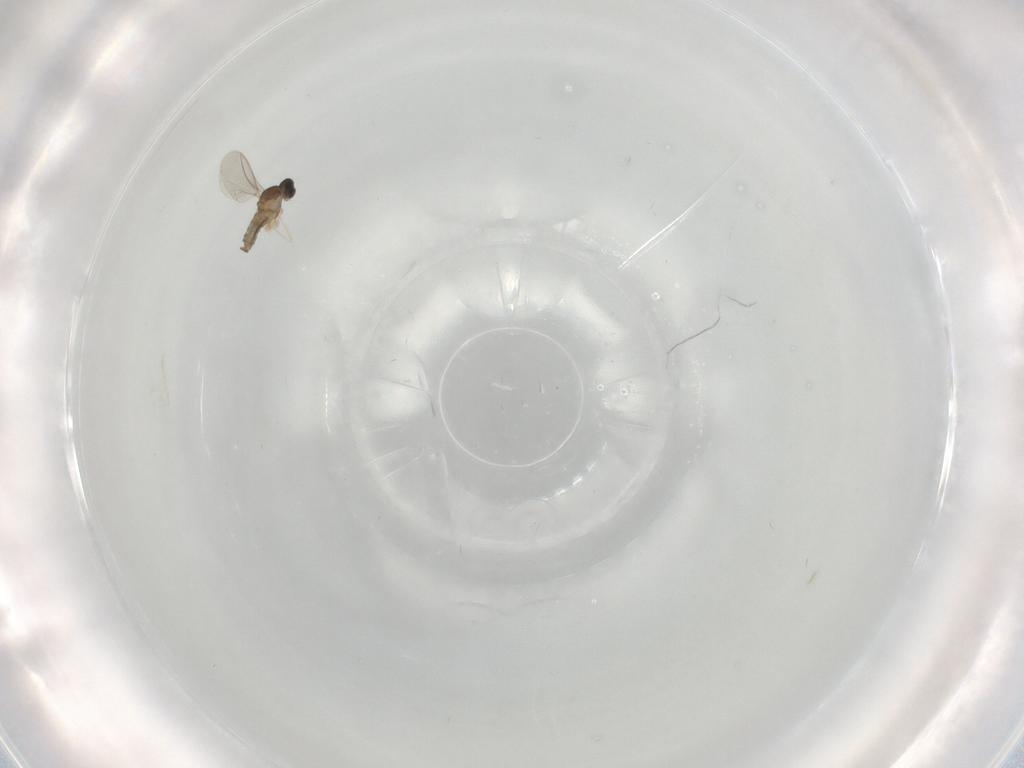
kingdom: Animalia
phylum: Arthropoda
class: Insecta
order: Diptera
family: Cecidomyiidae
